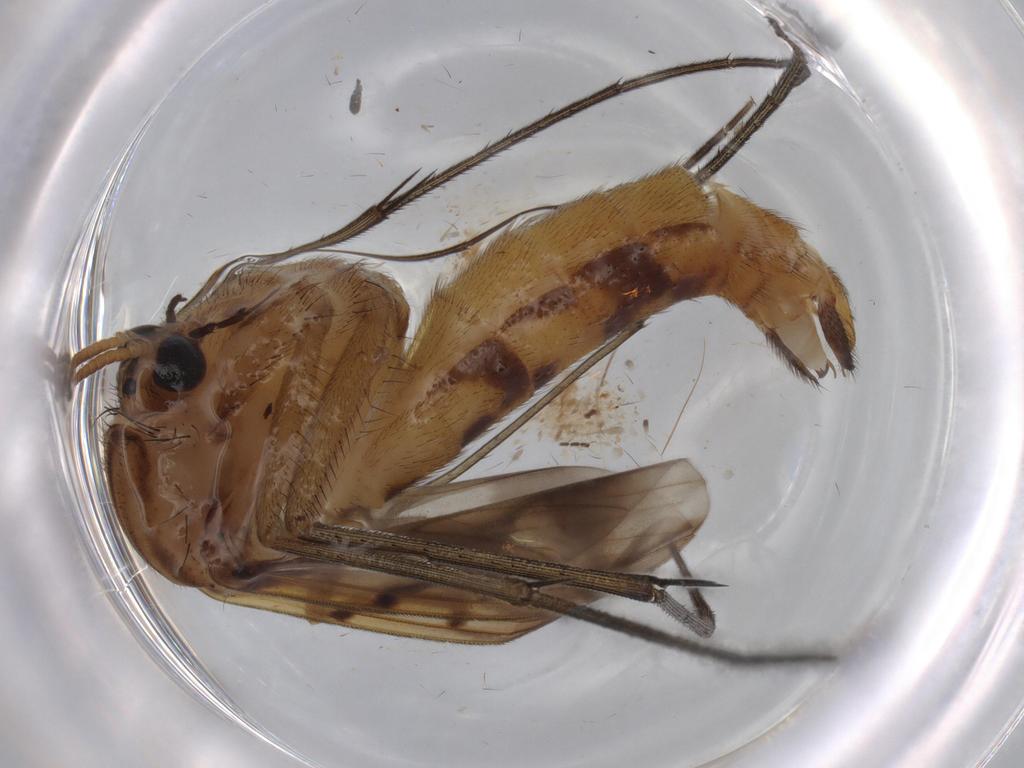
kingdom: Animalia
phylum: Arthropoda
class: Insecta
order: Diptera
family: Mycetophilidae
